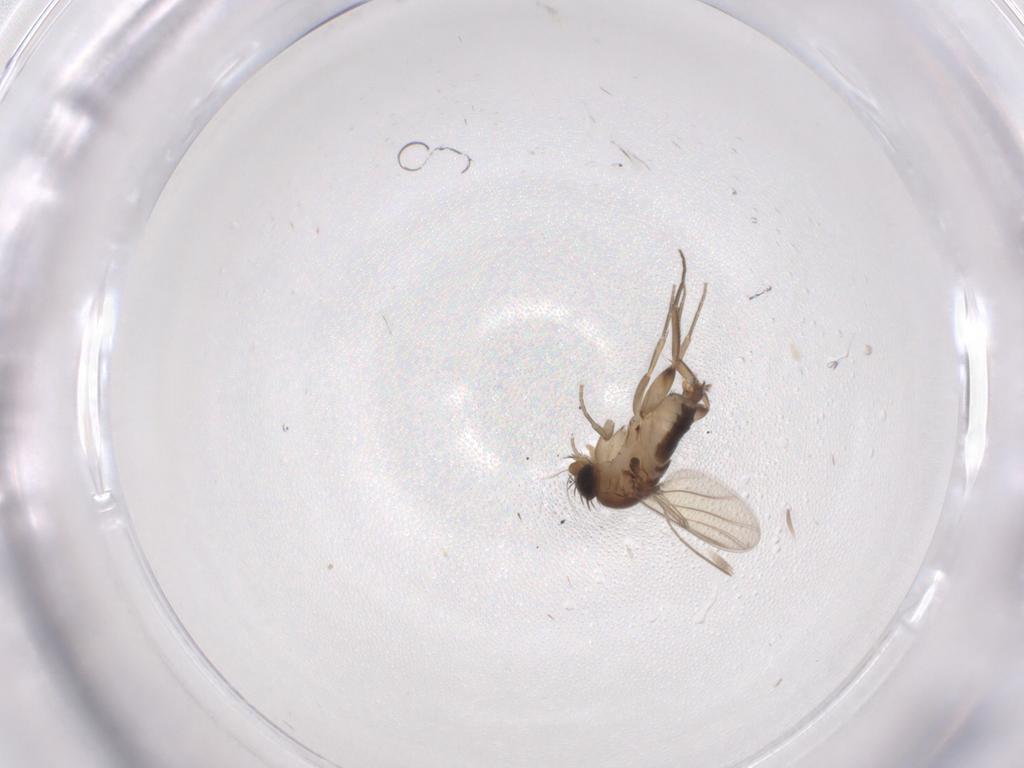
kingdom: Animalia
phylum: Arthropoda
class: Insecta
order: Diptera
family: Phoridae
